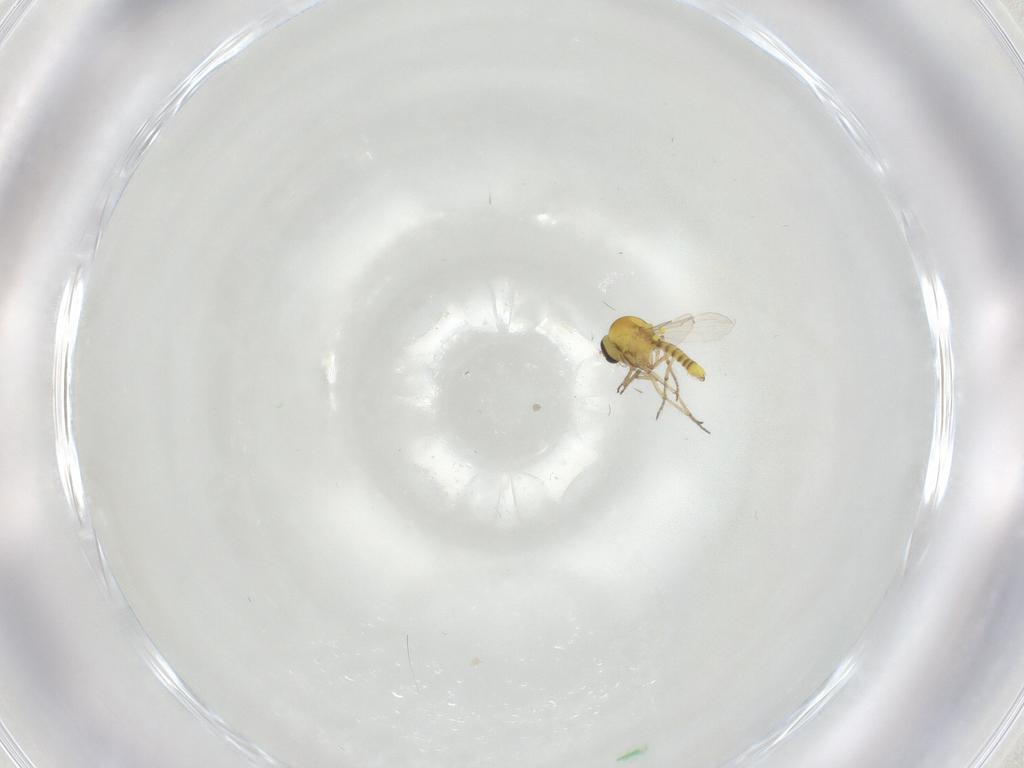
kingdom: Animalia
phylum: Arthropoda
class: Insecta
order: Diptera
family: Ceratopogonidae
